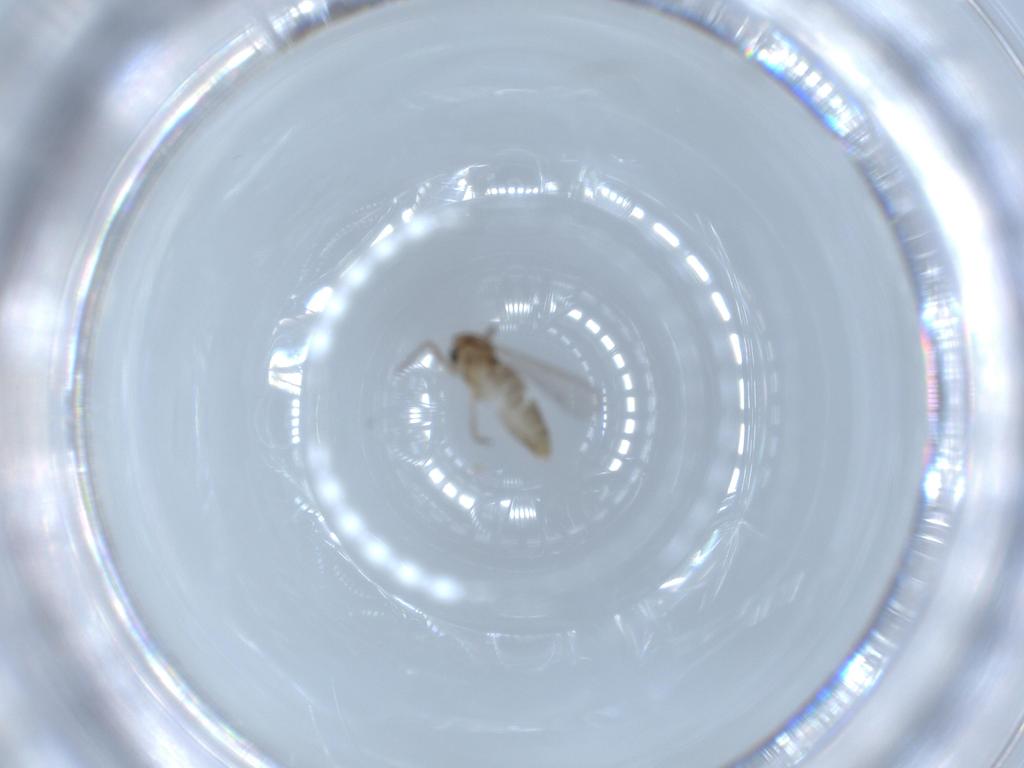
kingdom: Animalia
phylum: Arthropoda
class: Insecta
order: Diptera
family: Chironomidae
